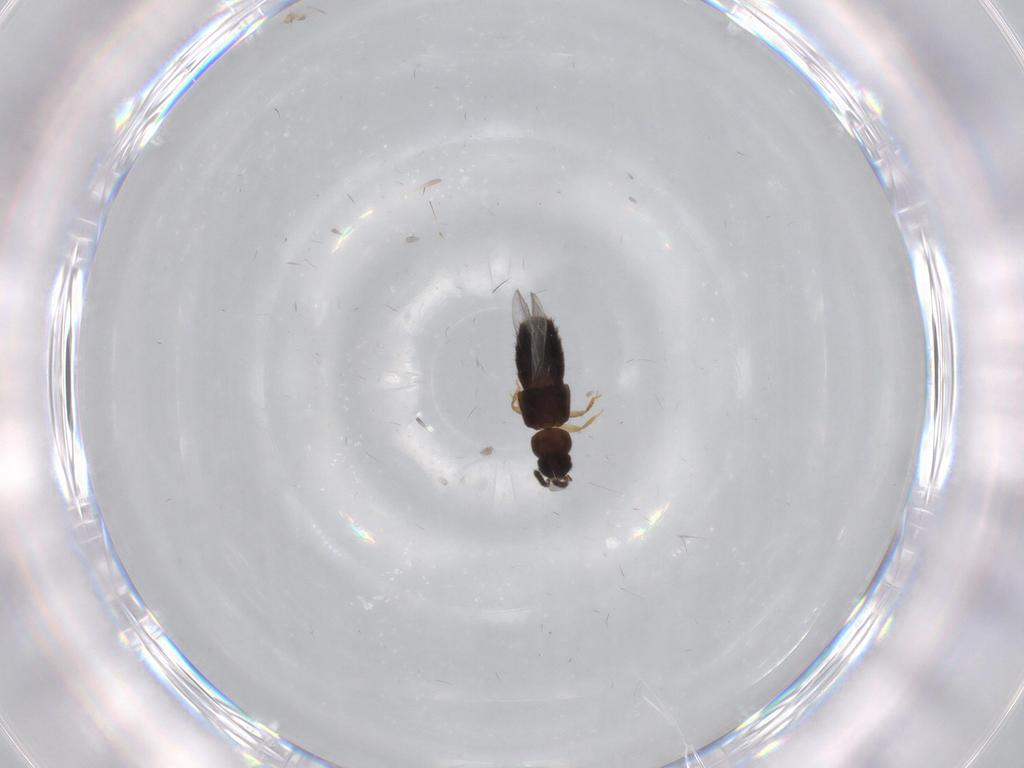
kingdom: Animalia
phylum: Arthropoda
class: Insecta
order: Coleoptera
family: Staphylinidae
